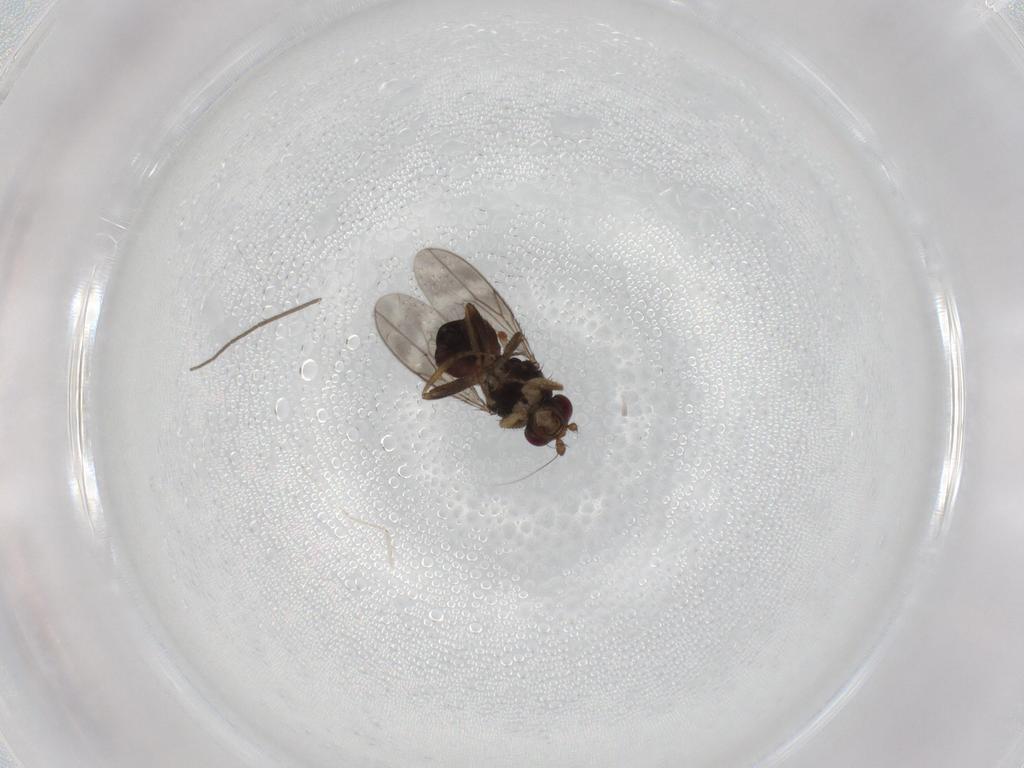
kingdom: Animalia
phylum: Arthropoda
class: Insecta
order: Diptera
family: Sphaeroceridae
